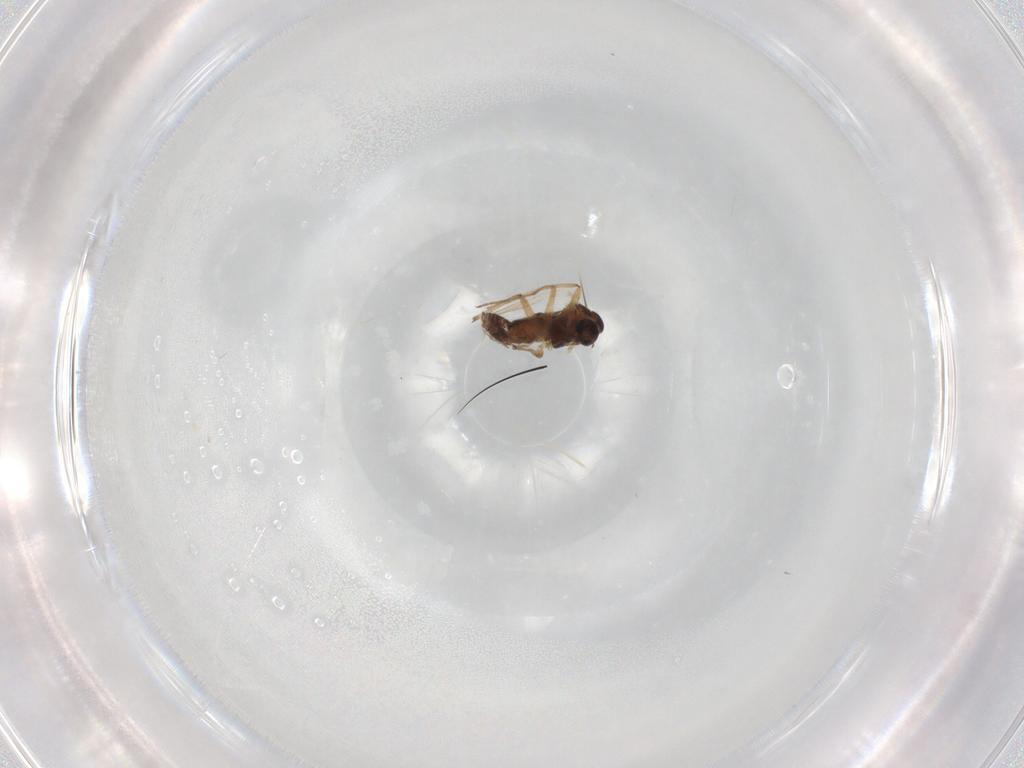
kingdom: Animalia
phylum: Arthropoda
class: Insecta
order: Diptera
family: Chironomidae
